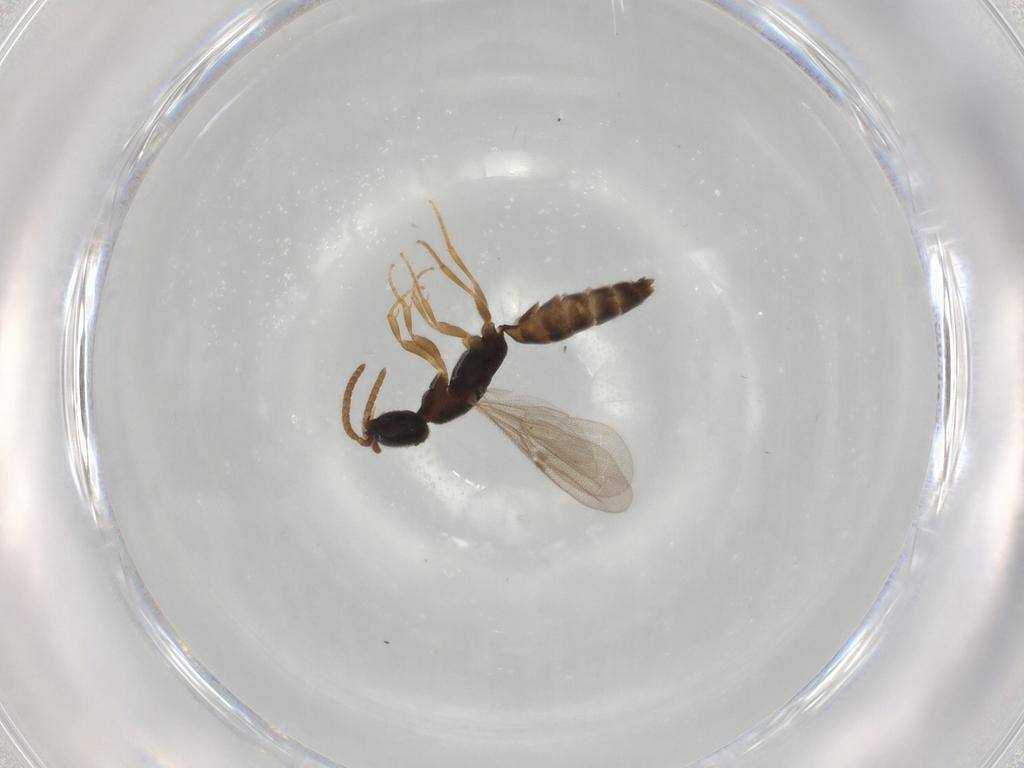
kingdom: Animalia
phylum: Arthropoda
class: Insecta
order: Hymenoptera
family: Bethylidae
